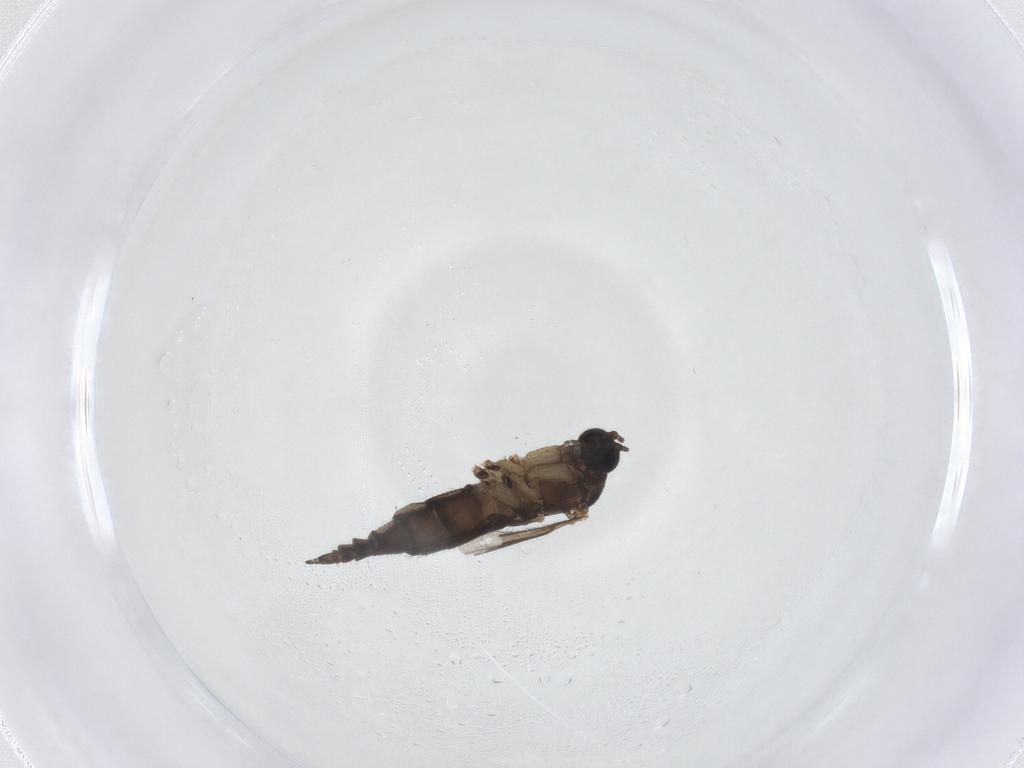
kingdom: Animalia
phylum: Arthropoda
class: Insecta
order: Diptera
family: Sciaridae
